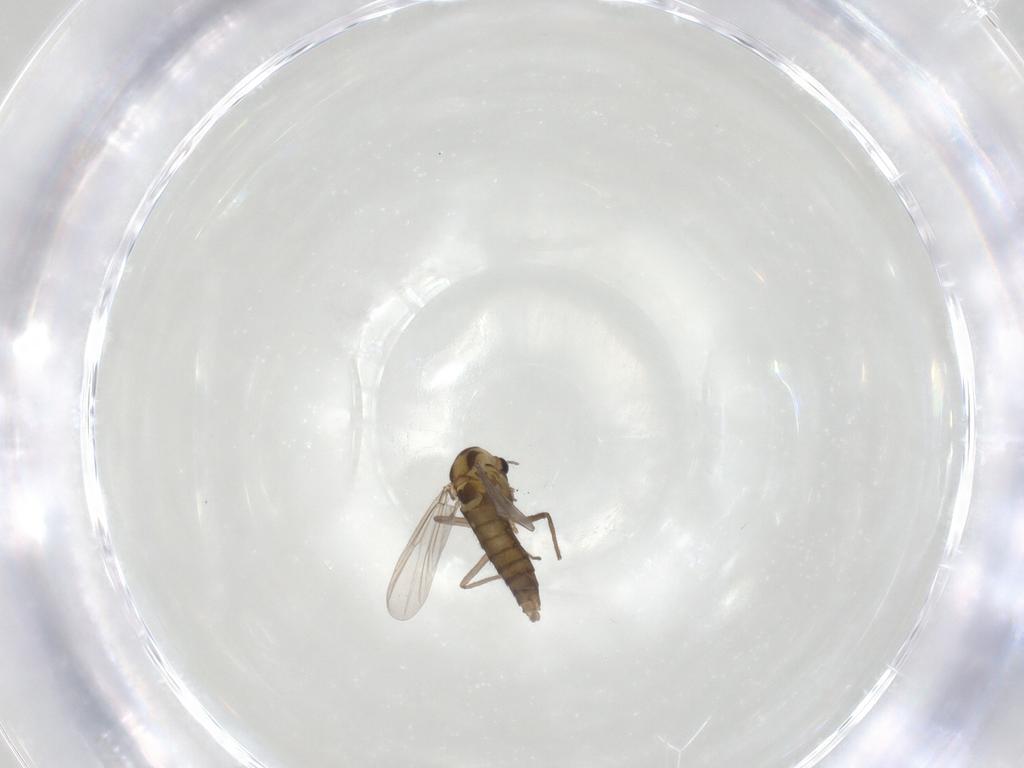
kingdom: Animalia
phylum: Arthropoda
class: Insecta
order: Diptera
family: Chironomidae
